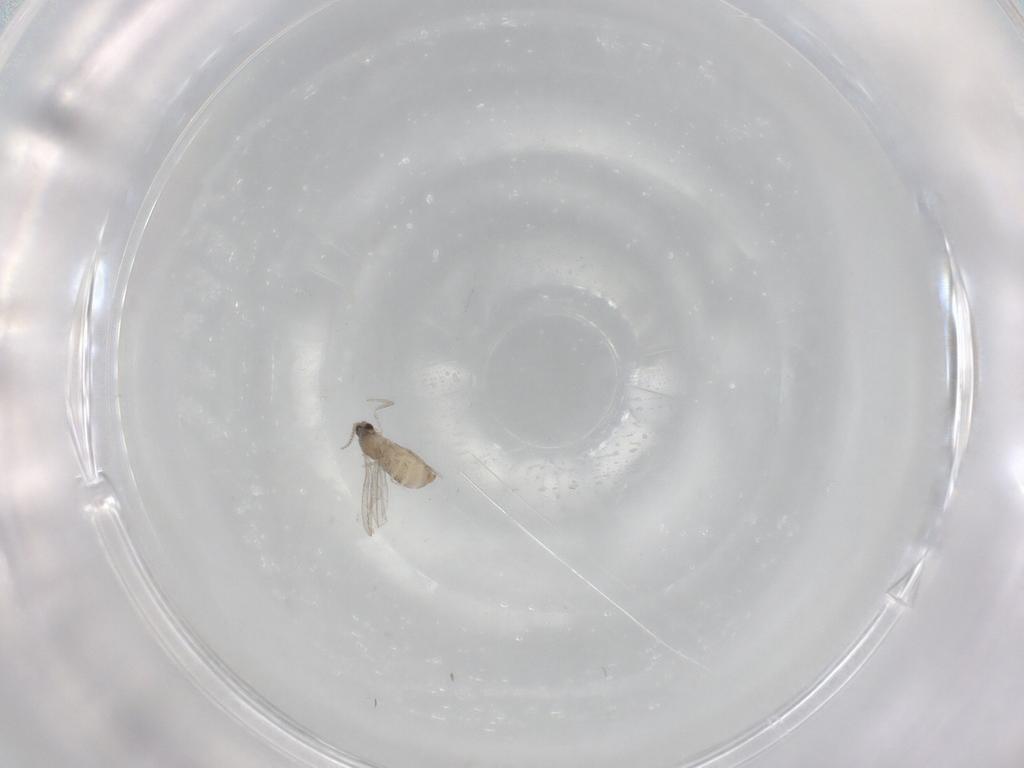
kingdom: Animalia
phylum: Arthropoda
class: Insecta
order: Diptera
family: Cecidomyiidae
